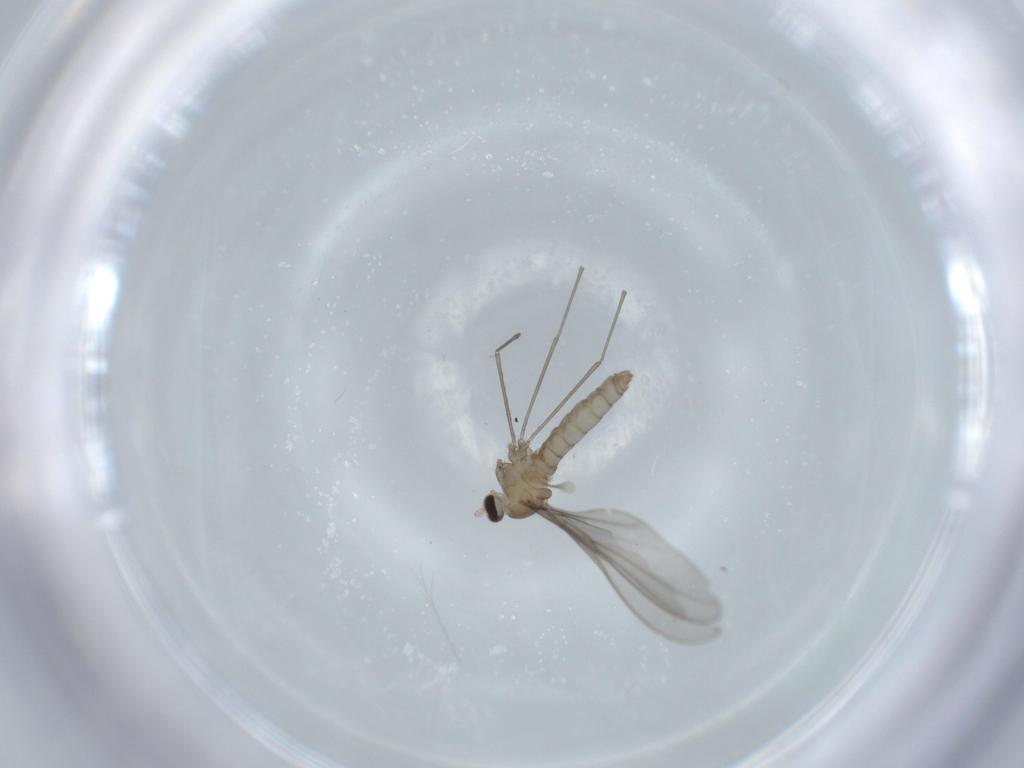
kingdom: Animalia
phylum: Arthropoda
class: Insecta
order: Diptera
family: Cecidomyiidae
